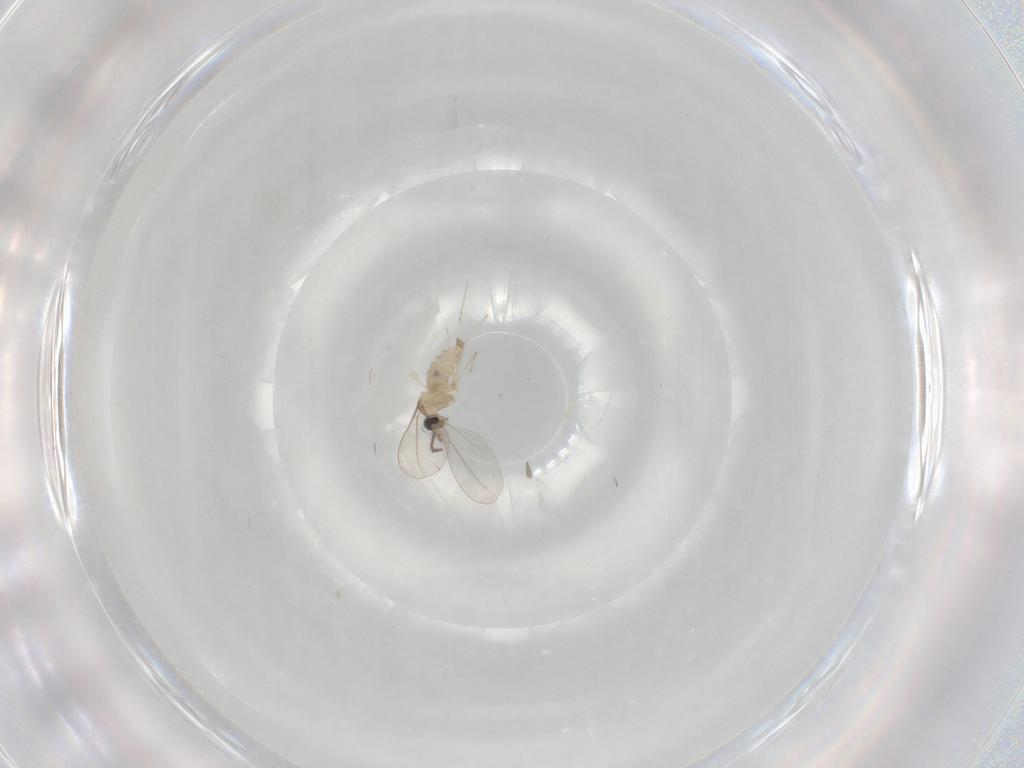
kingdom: Animalia
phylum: Arthropoda
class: Insecta
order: Diptera
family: Cecidomyiidae
